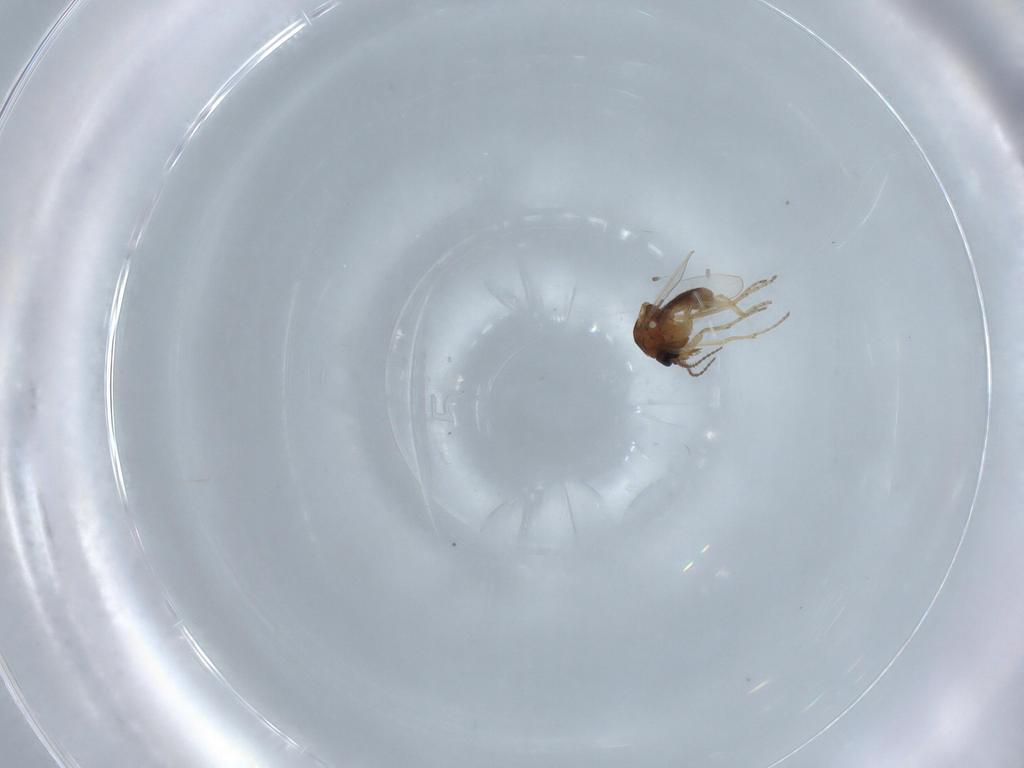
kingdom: Animalia
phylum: Arthropoda
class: Insecta
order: Diptera
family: Ceratopogonidae
